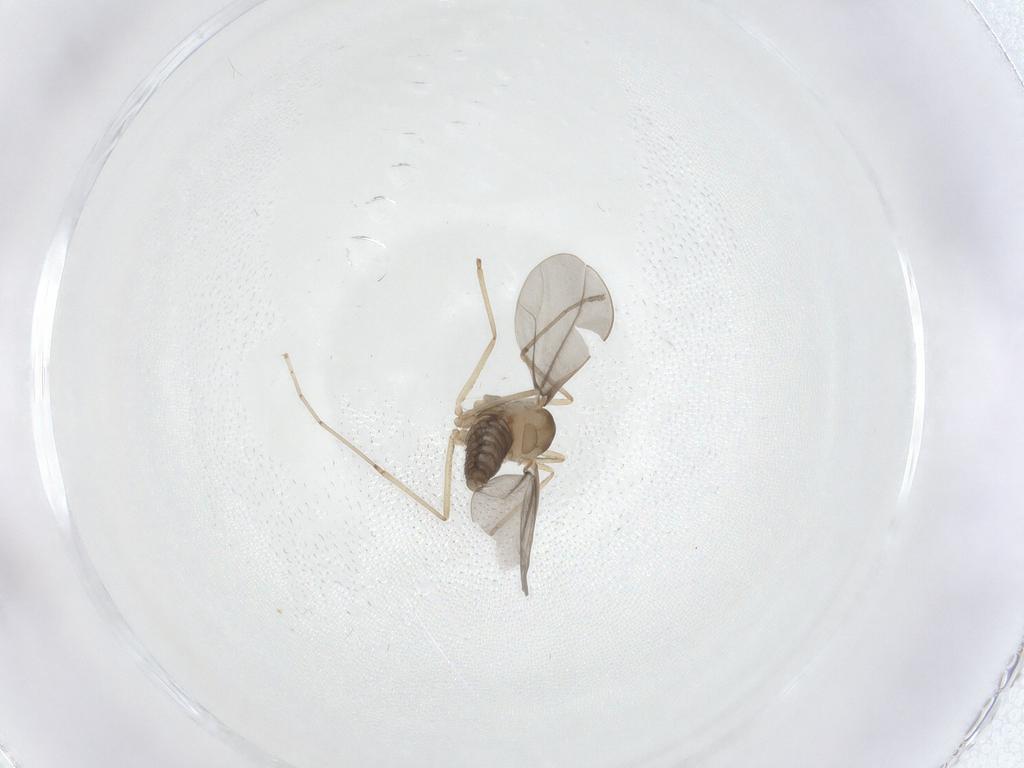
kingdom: Animalia
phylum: Arthropoda
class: Insecta
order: Diptera
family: Cecidomyiidae
